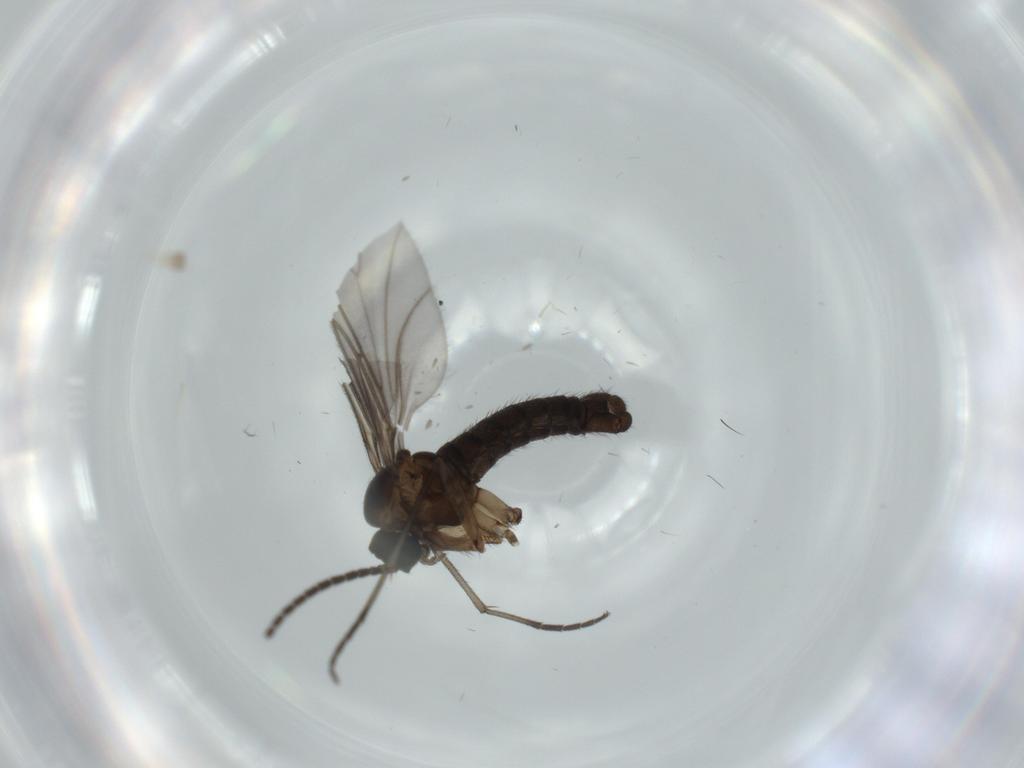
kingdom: Animalia
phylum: Arthropoda
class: Insecta
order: Diptera
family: Sciaridae
